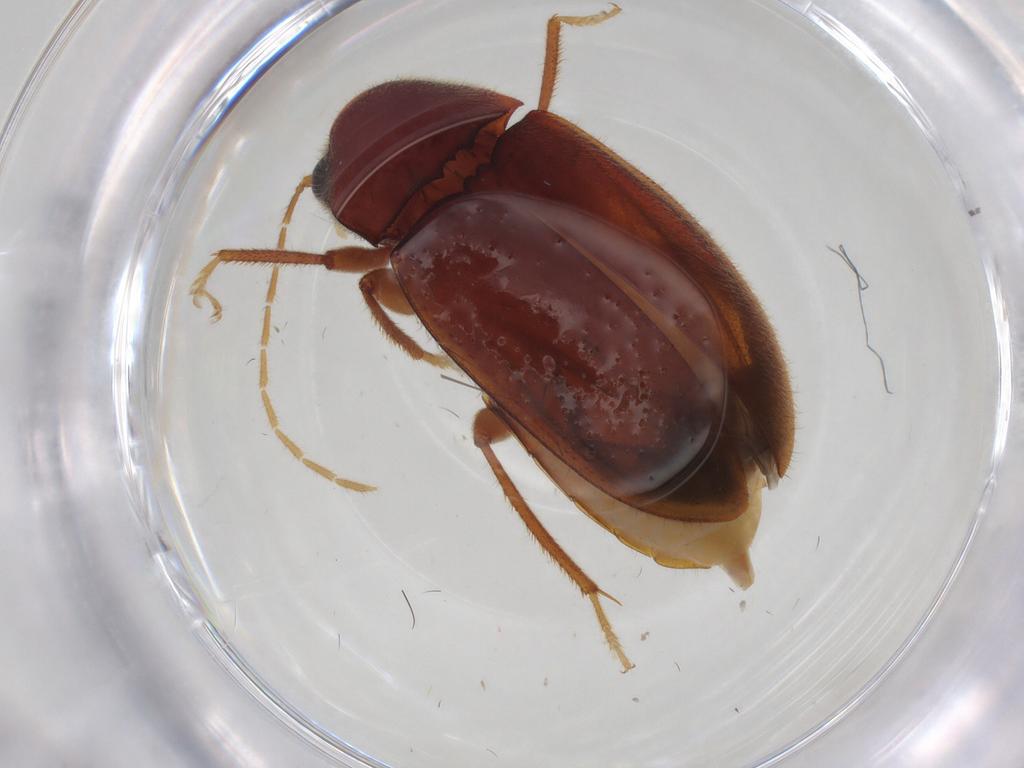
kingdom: Animalia
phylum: Arthropoda
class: Insecta
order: Coleoptera
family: Ptilodactylidae
